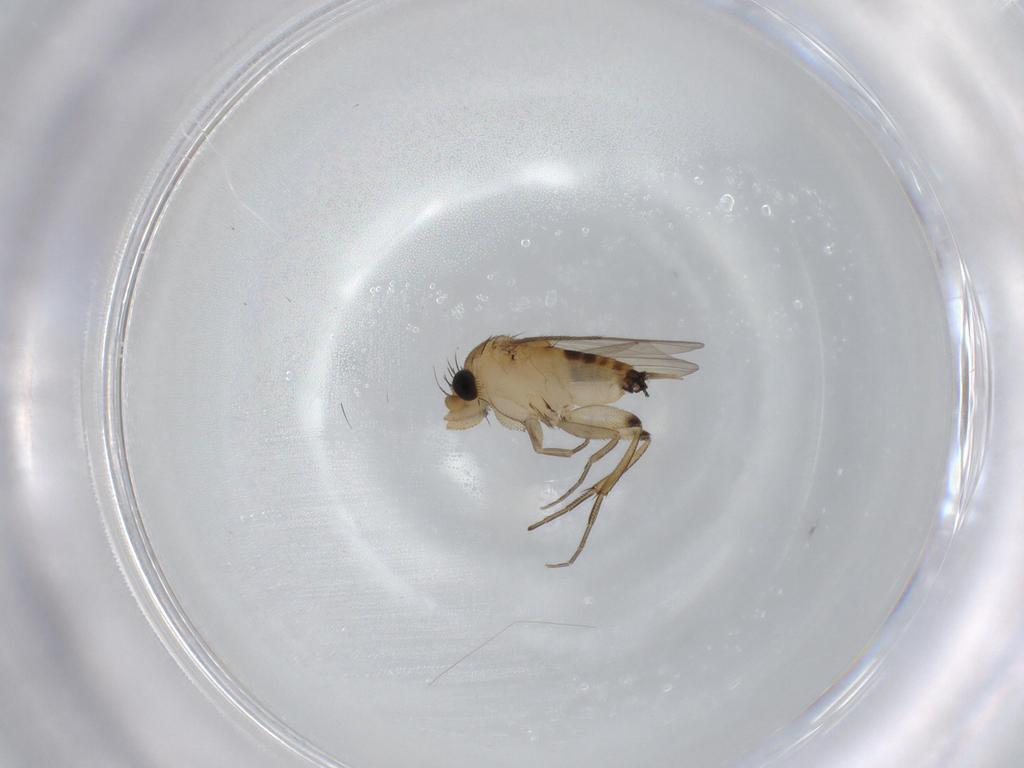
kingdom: Animalia
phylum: Arthropoda
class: Insecta
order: Diptera
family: Phoridae
